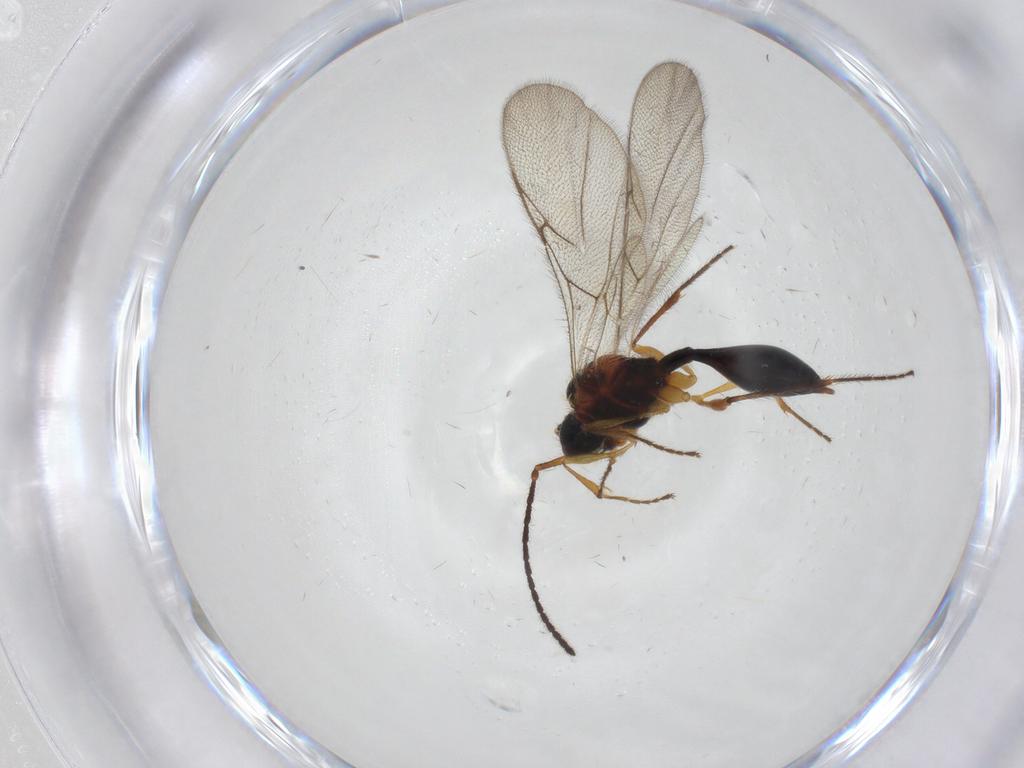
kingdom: Animalia
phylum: Arthropoda
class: Insecta
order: Hymenoptera
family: Diapriidae
